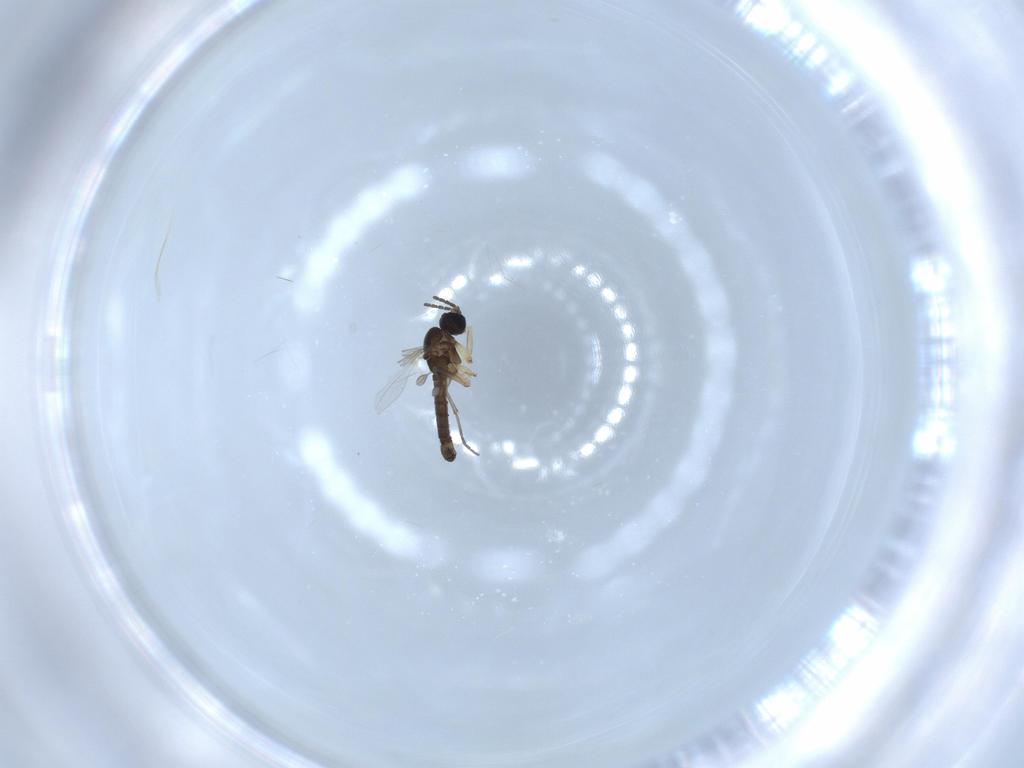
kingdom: Animalia
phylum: Arthropoda
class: Insecta
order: Diptera
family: Sciaridae
